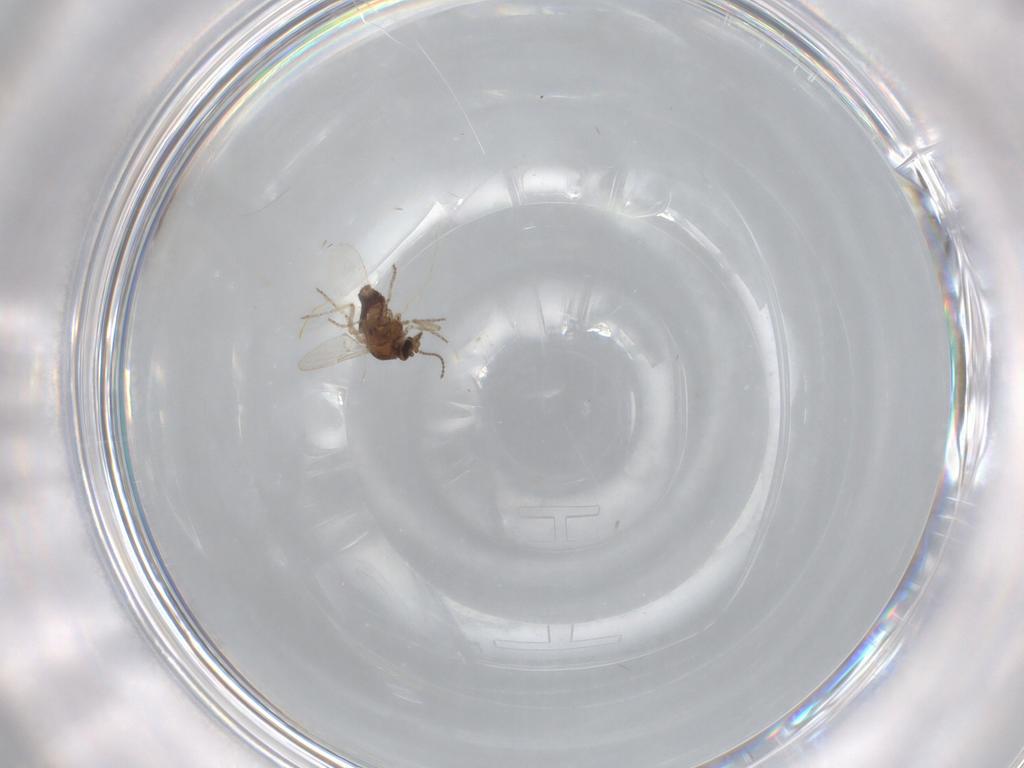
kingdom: Animalia
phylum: Arthropoda
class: Insecta
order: Diptera
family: Ceratopogonidae
